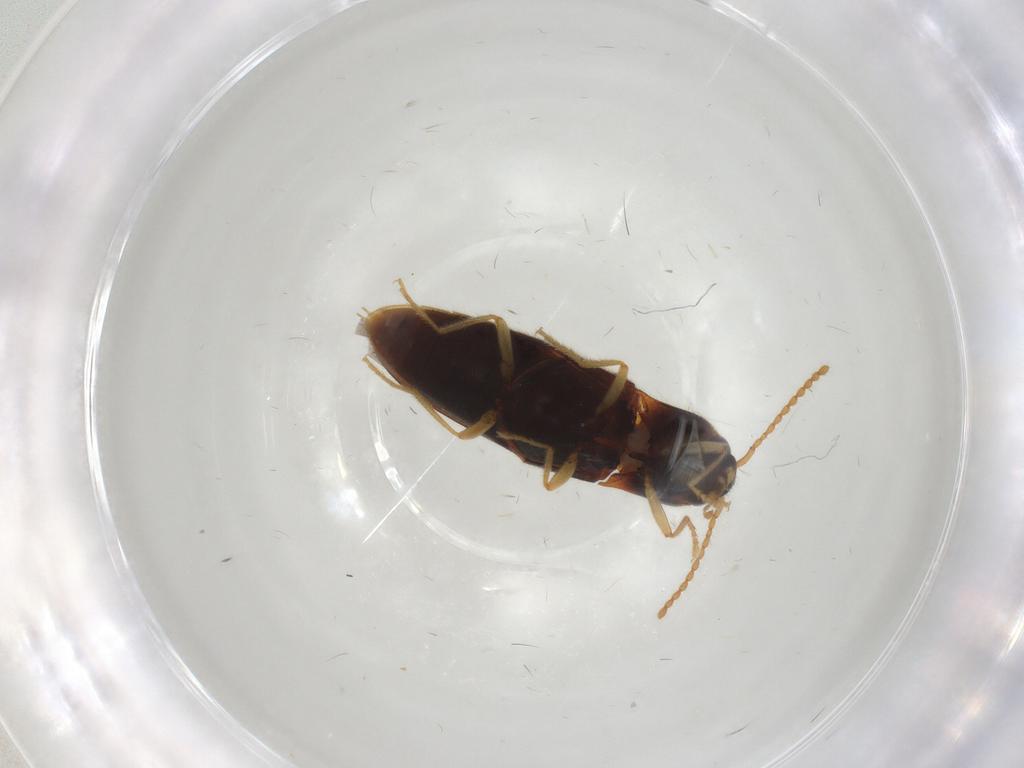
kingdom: Animalia
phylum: Arthropoda
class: Insecta
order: Coleoptera
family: Elateridae
